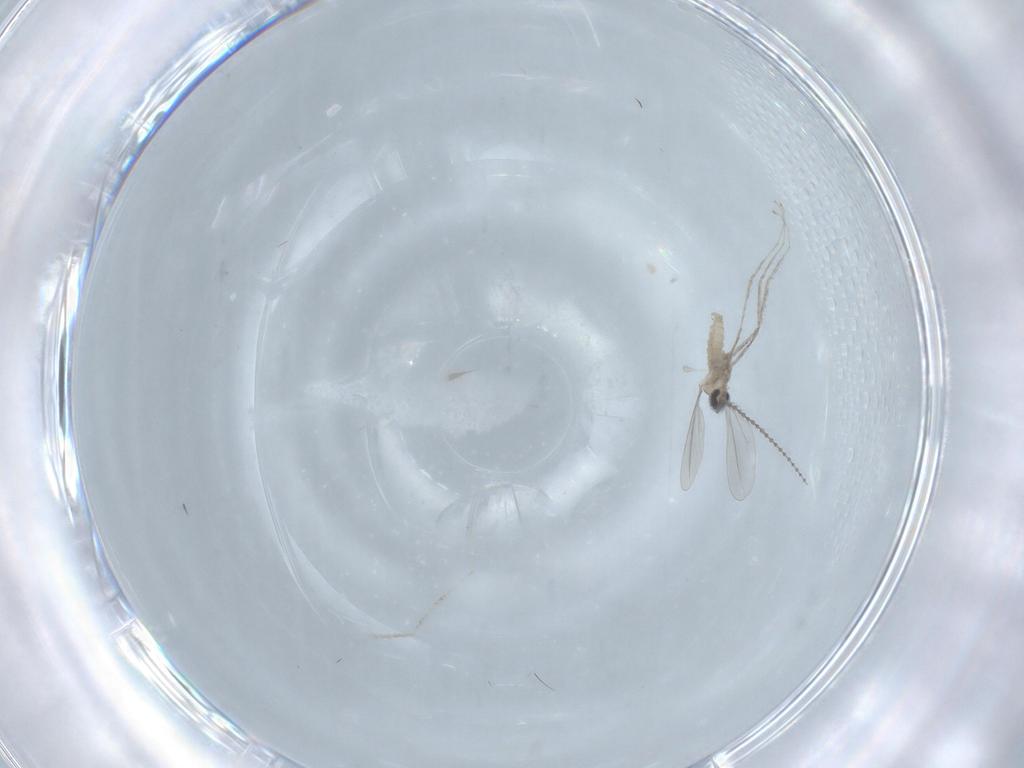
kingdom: Animalia
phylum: Arthropoda
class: Insecta
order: Diptera
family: Cecidomyiidae
